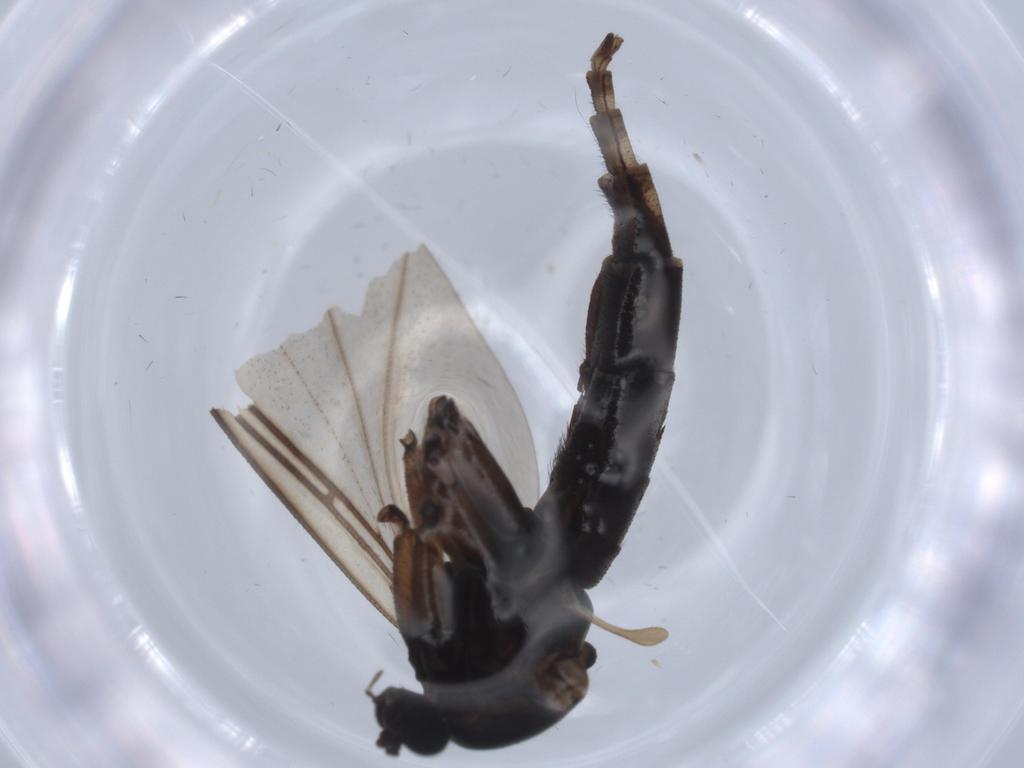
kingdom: Animalia
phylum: Arthropoda
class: Insecta
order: Diptera
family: Sciaridae
